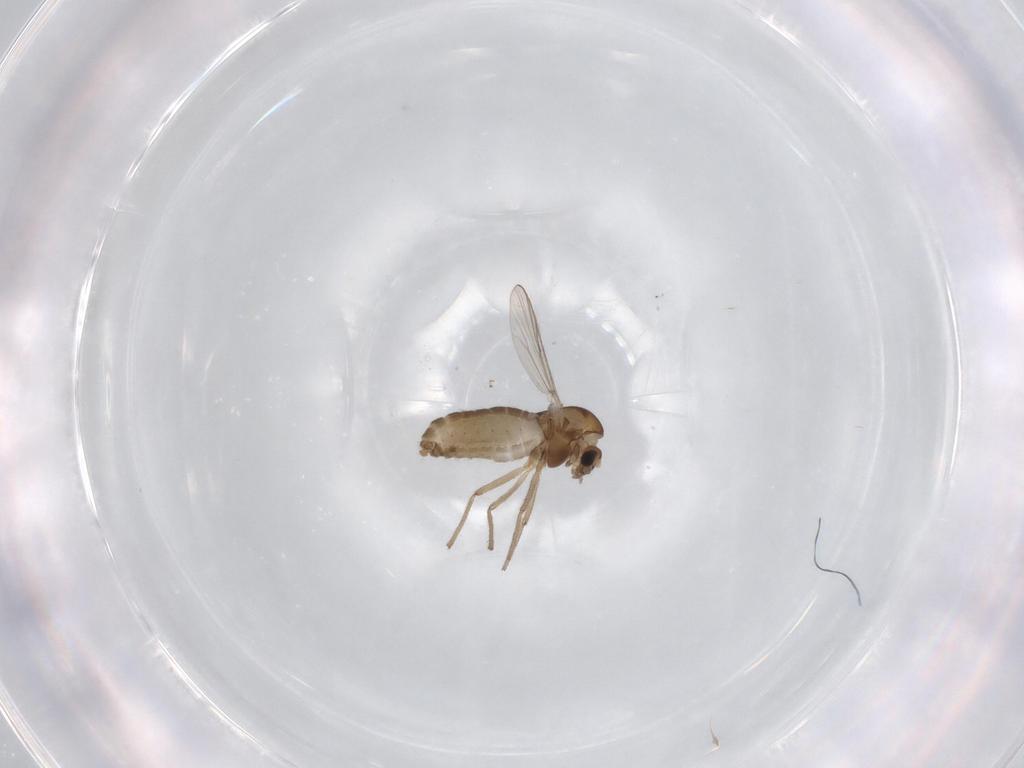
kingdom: Animalia
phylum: Arthropoda
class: Insecta
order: Diptera
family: Chironomidae
